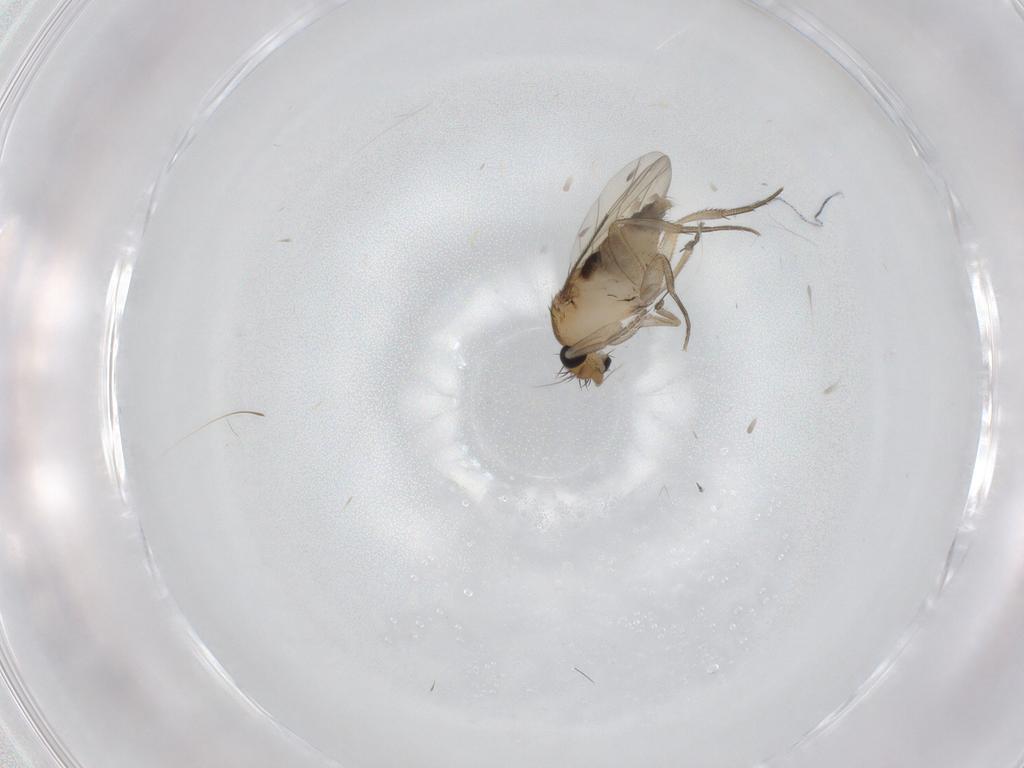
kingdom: Animalia
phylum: Arthropoda
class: Insecta
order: Diptera
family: Phoridae
